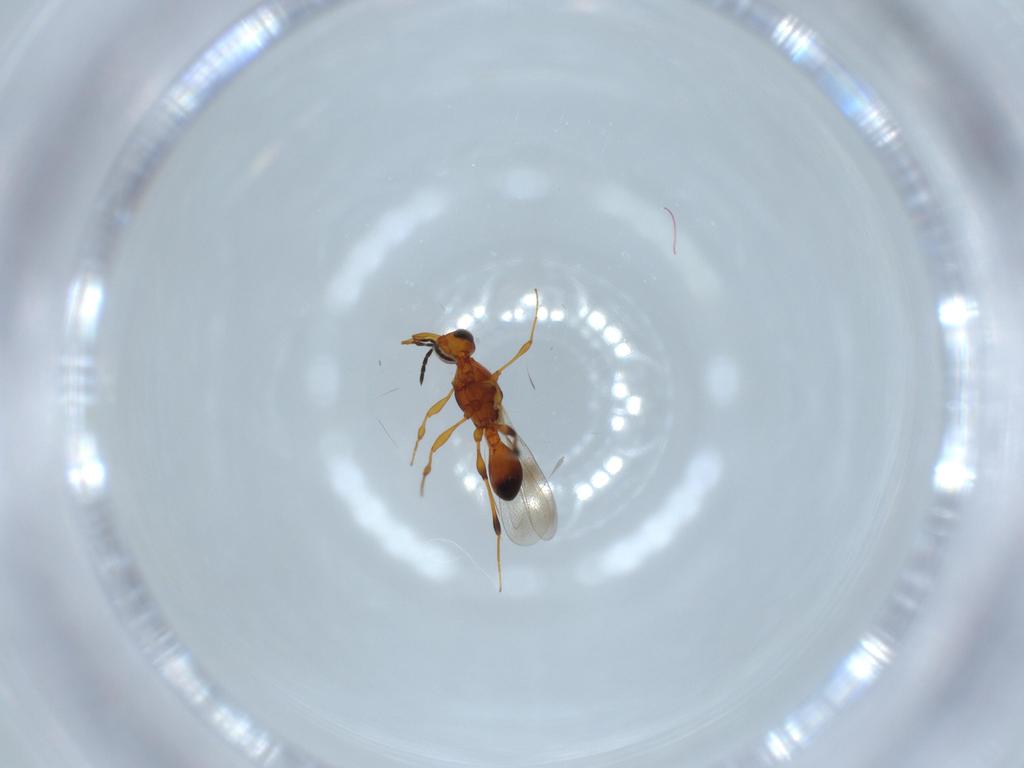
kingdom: Animalia
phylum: Arthropoda
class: Insecta
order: Hymenoptera
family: Platygastridae
